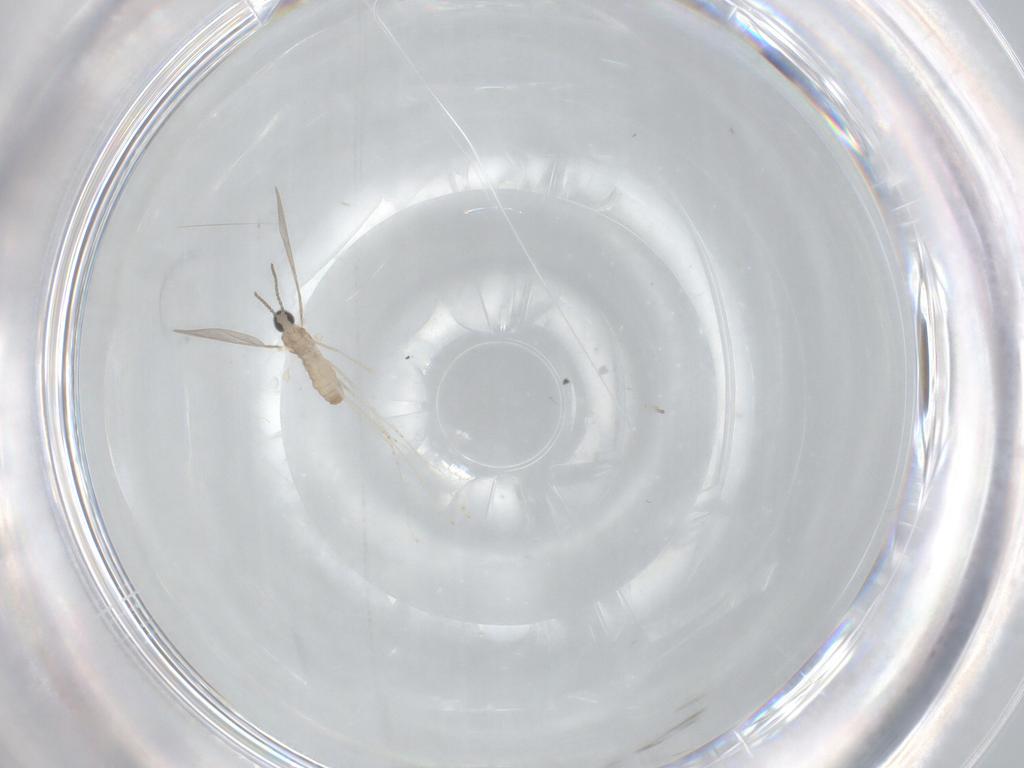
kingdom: Animalia
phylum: Arthropoda
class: Insecta
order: Diptera
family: Cecidomyiidae
